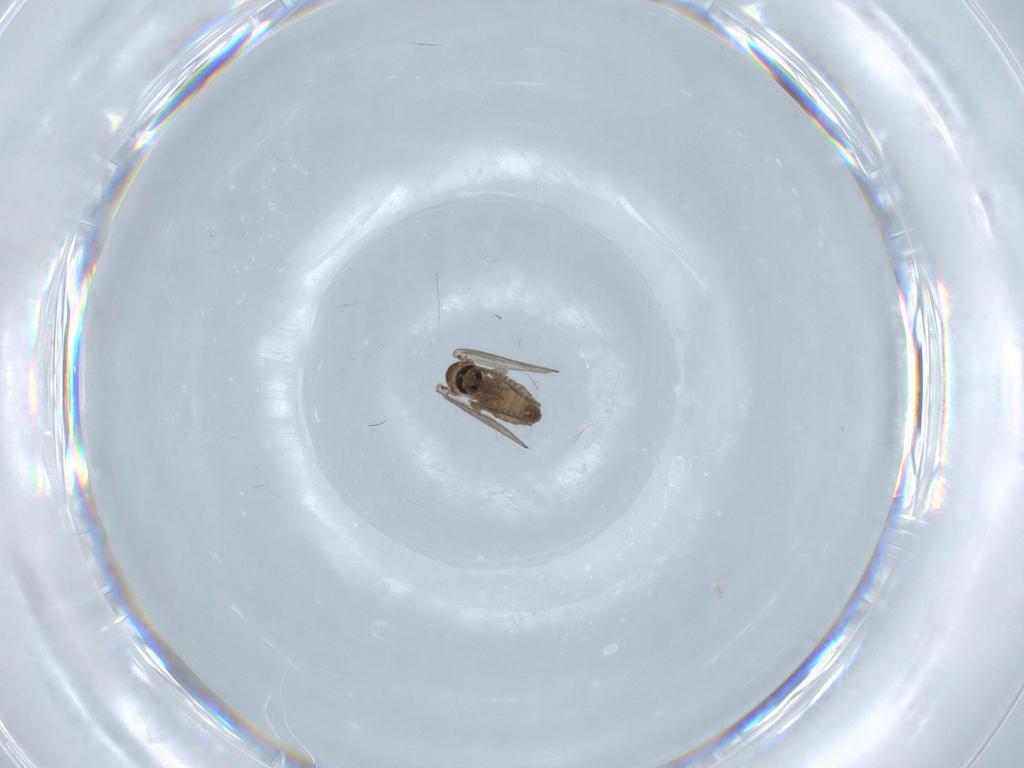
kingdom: Animalia
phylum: Arthropoda
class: Insecta
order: Diptera
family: Psychodidae
